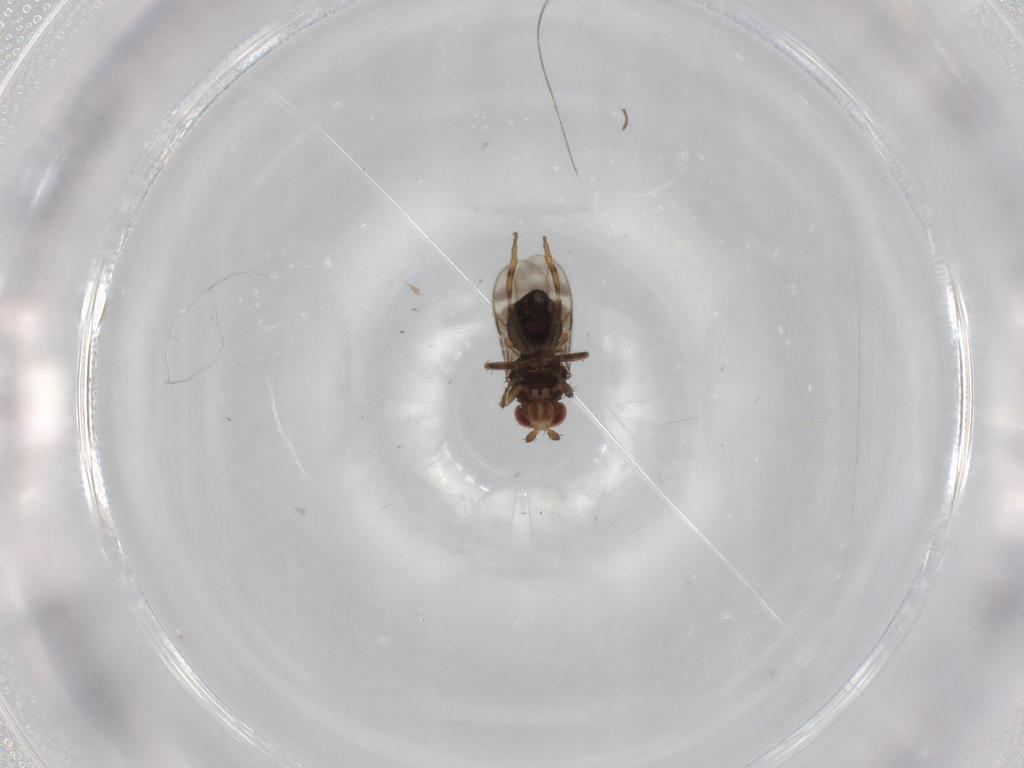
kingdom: Animalia
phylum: Arthropoda
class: Insecta
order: Diptera
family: Sphaeroceridae
